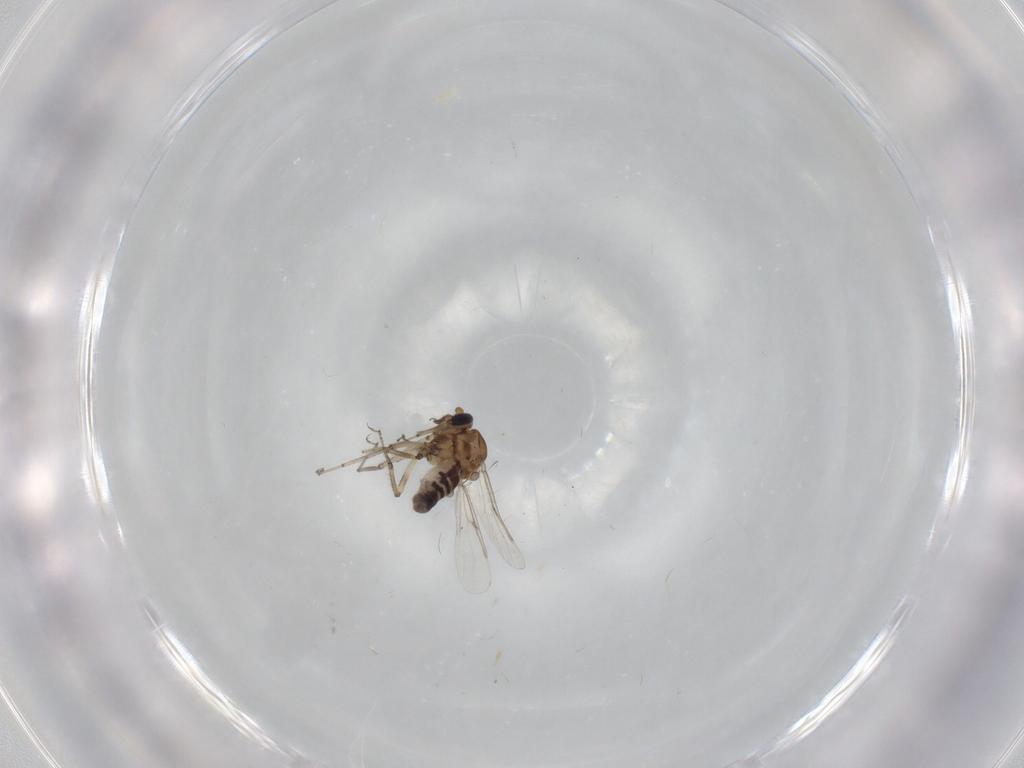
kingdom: Animalia
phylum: Arthropoda
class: Insecta
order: Diptera
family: Ceratopogonidae
